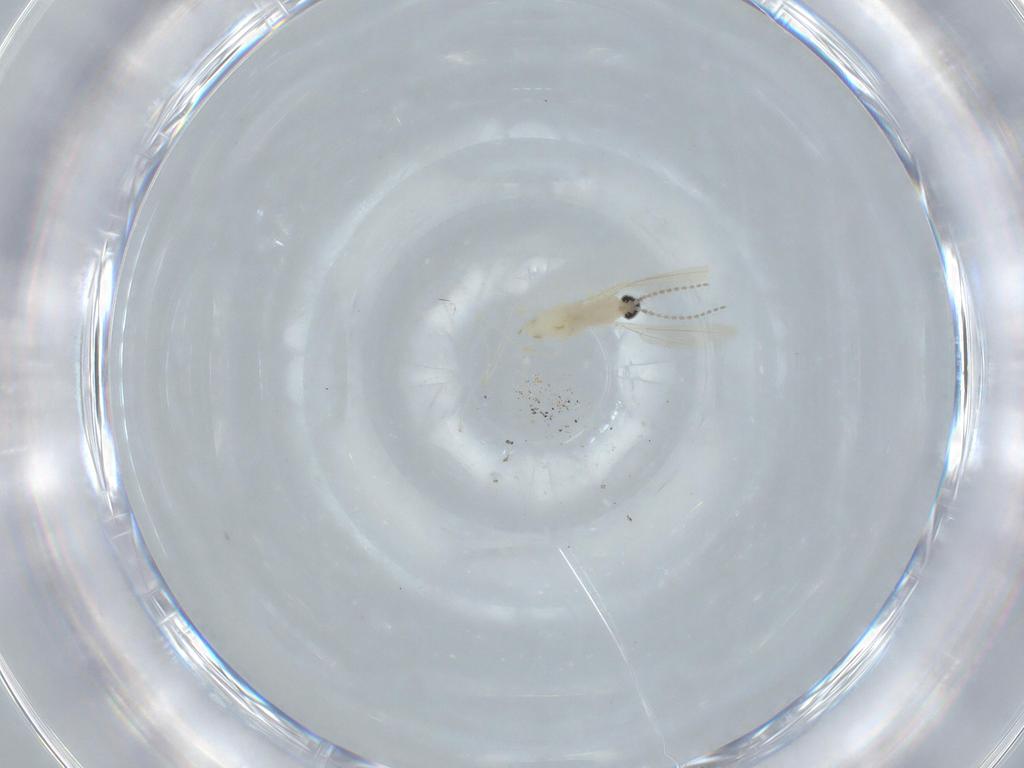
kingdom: Animalia
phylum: Arthropoda
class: Insecta
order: Diptera
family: Cecidomyiidae
